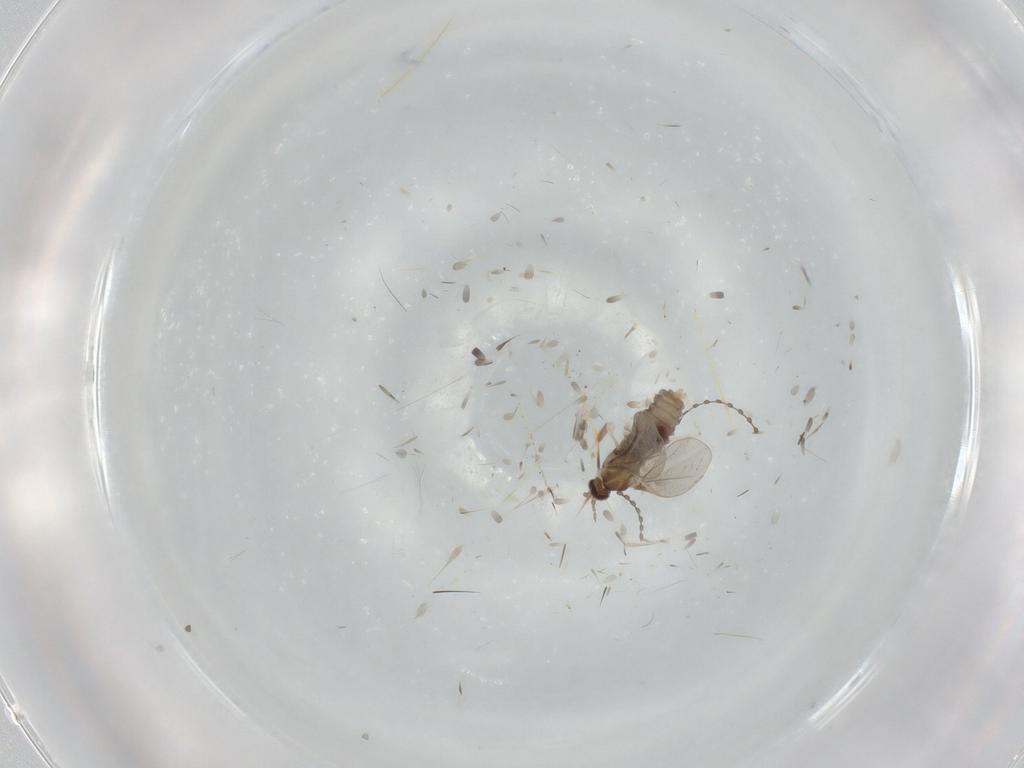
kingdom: Animalia
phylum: Arthropoda
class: Insecta
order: Diptera
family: Cecidomyiidae
